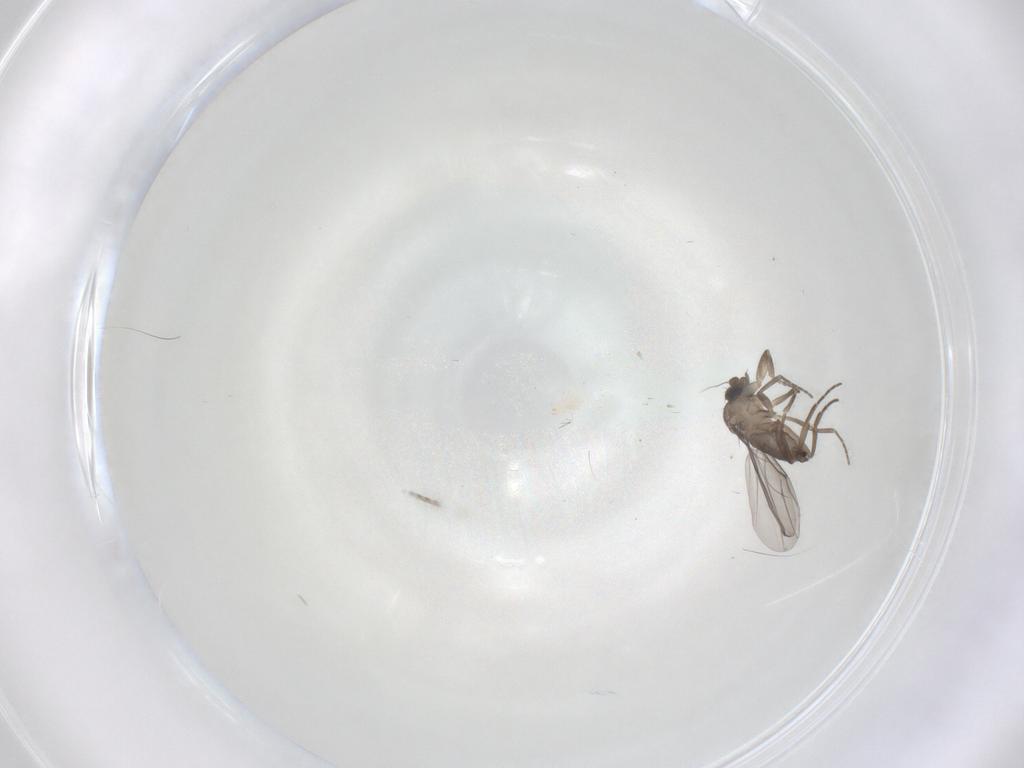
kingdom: Animalia
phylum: Arthropoda
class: Insecta
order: Diptera
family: Phoridae
